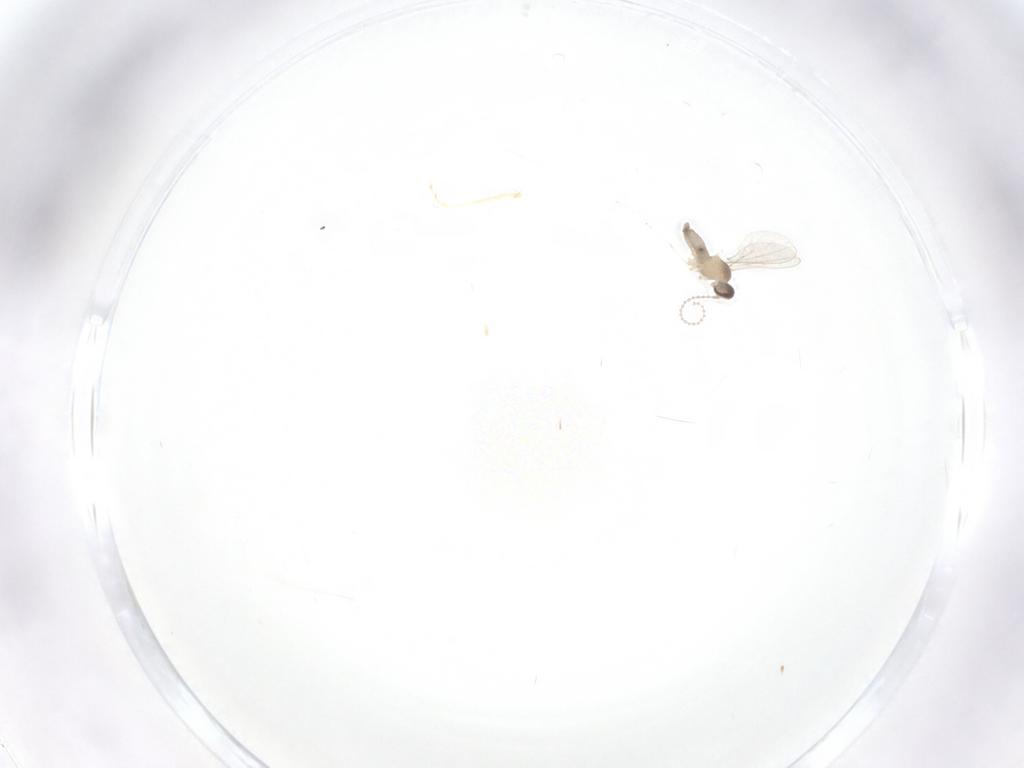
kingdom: Animalia
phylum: Arthropoda
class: Insecta
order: Diptera
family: Ceratopogonidae
